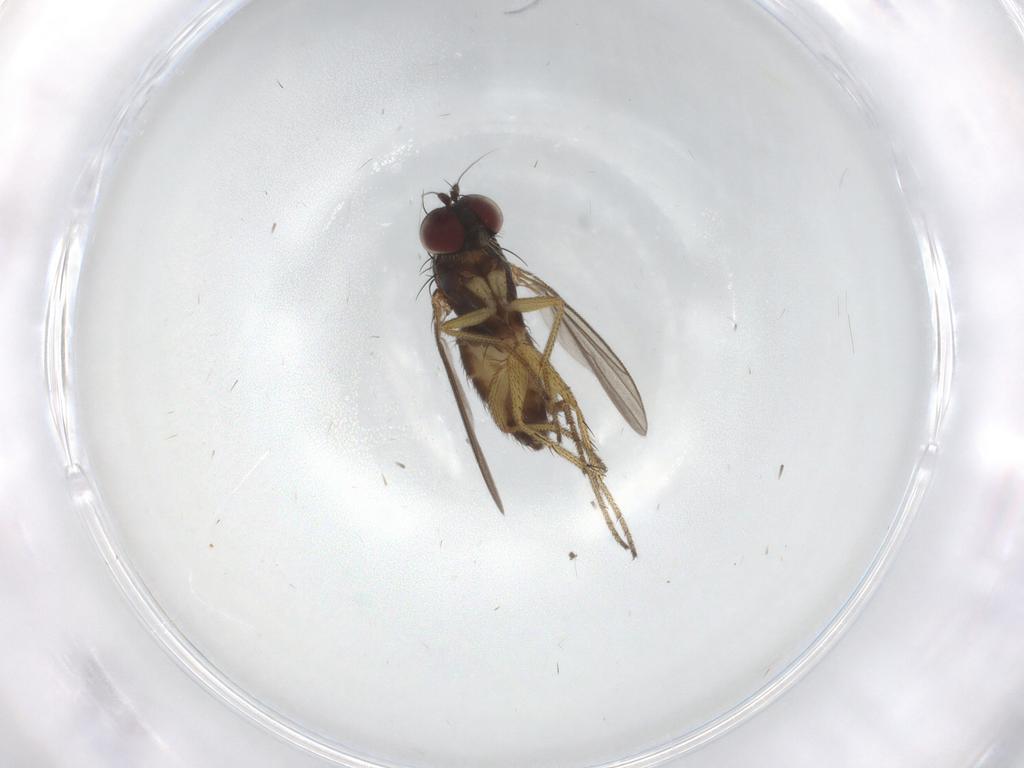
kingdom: Animalia
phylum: Arthropoda
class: Insecta
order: Diptera
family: Dolichopodidae
